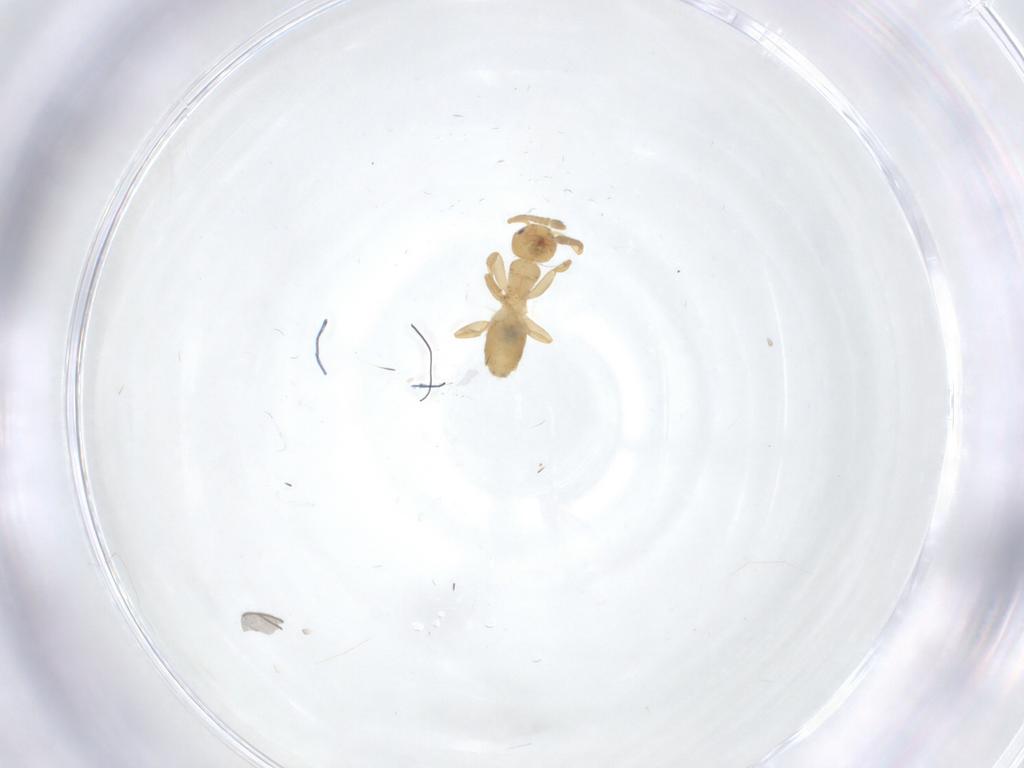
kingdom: Animalia
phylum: Arthropoda
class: Insecta
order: Hymenoptera
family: Formicidae
